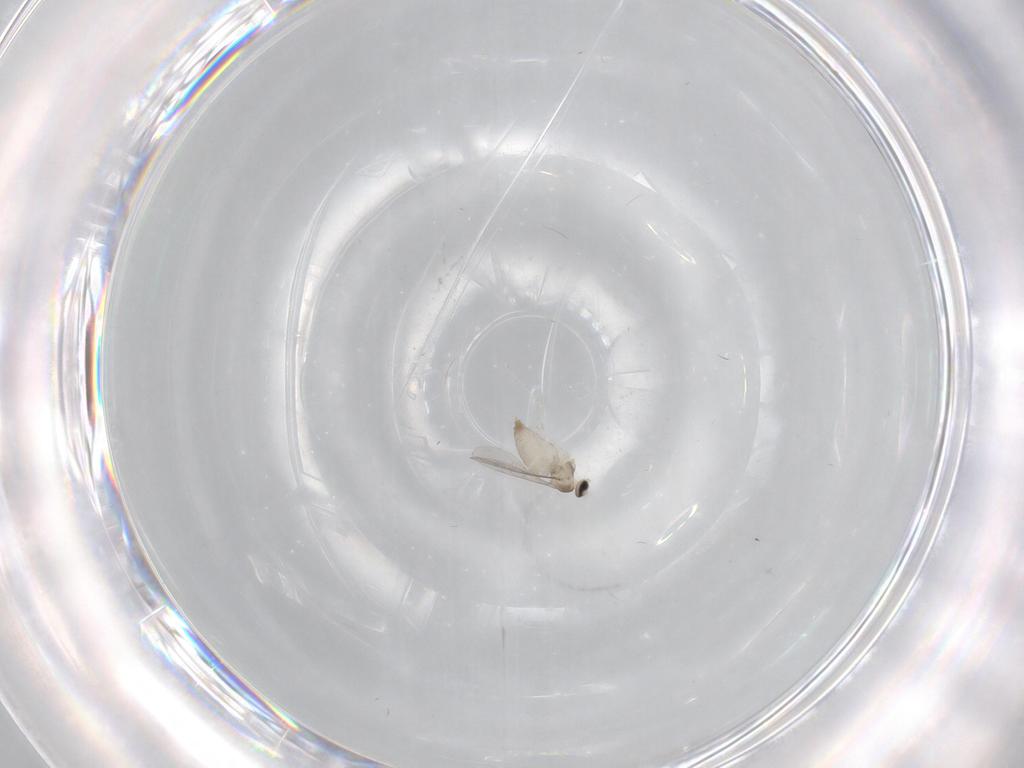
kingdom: Animalia
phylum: Arthropoda
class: Insecta
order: Diptera
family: Cecidomyiidae
